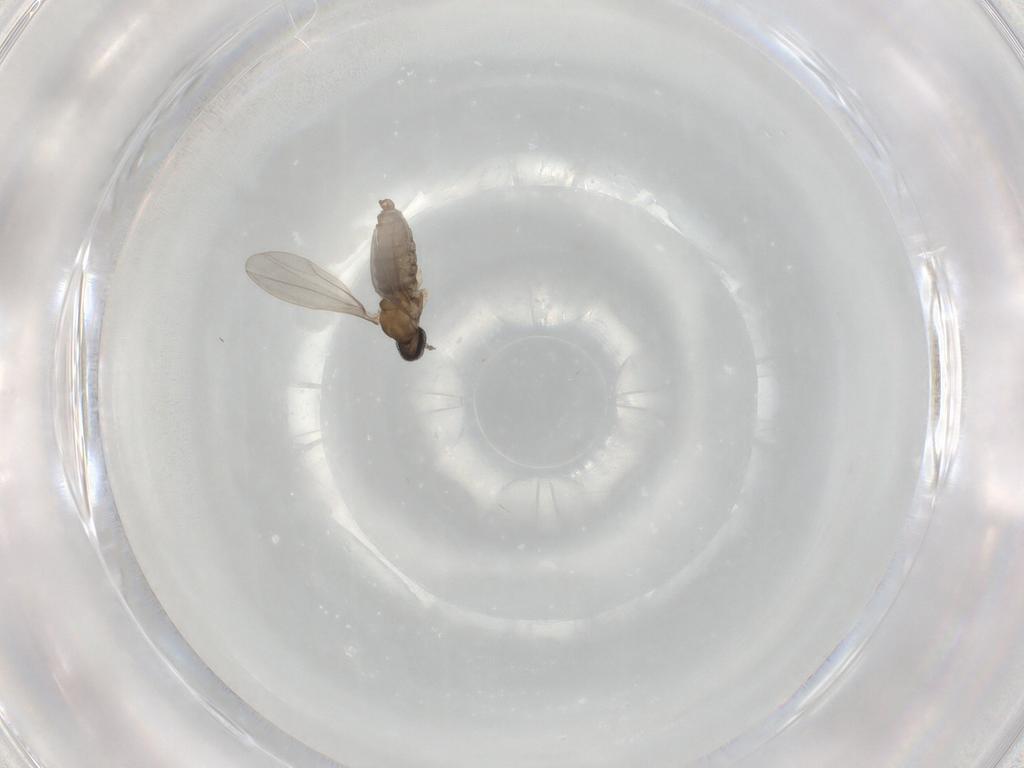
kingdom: Animalia
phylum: Arthropoda
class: Insecta
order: Diptera
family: Cecidomyiidae
